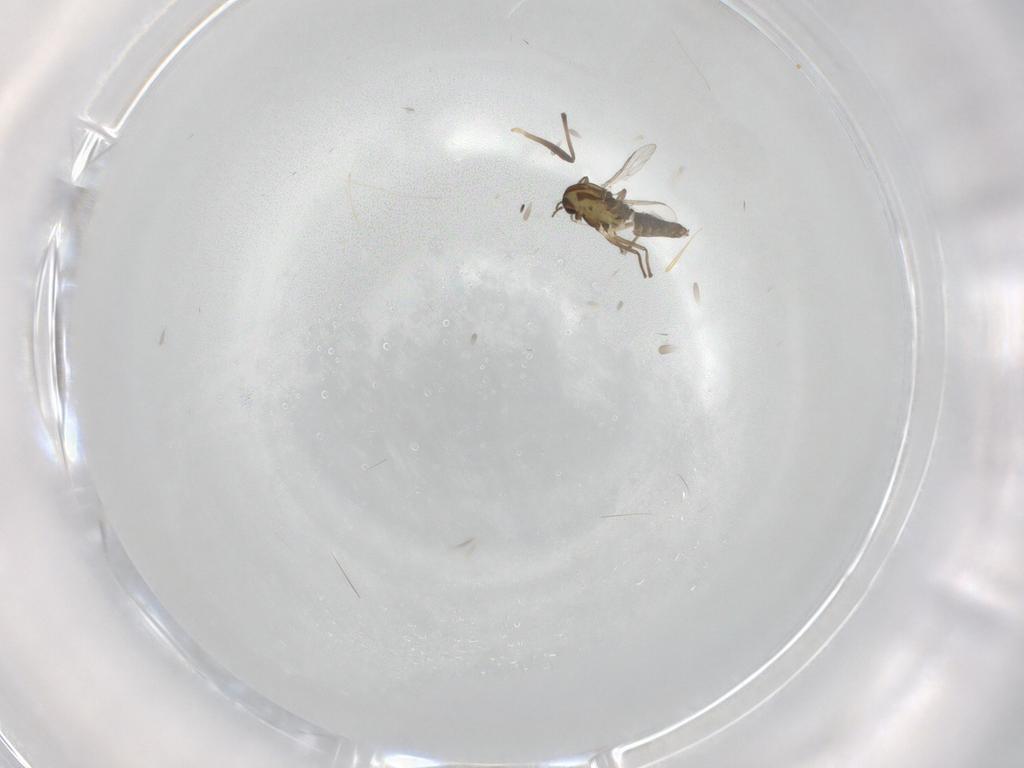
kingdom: Animalia
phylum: Arthropoda
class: Insecta
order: Diptera
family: Chironomidae
